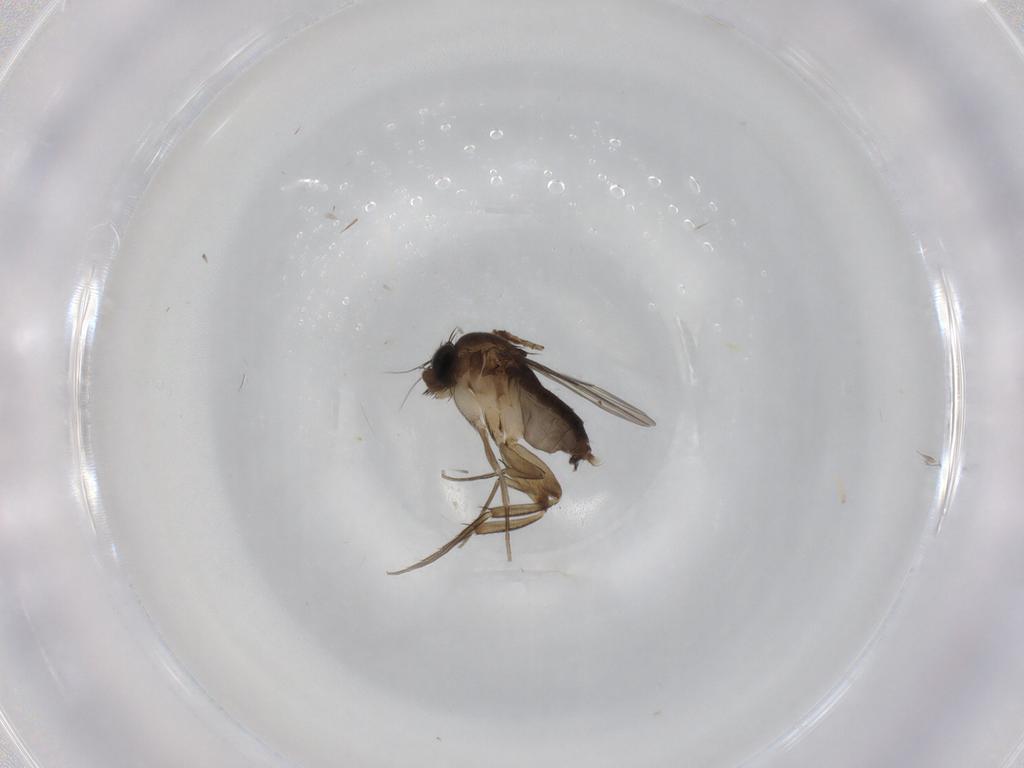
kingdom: Animalia
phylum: Arthropoda
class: Insecta
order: Diptera
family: Phoridae
